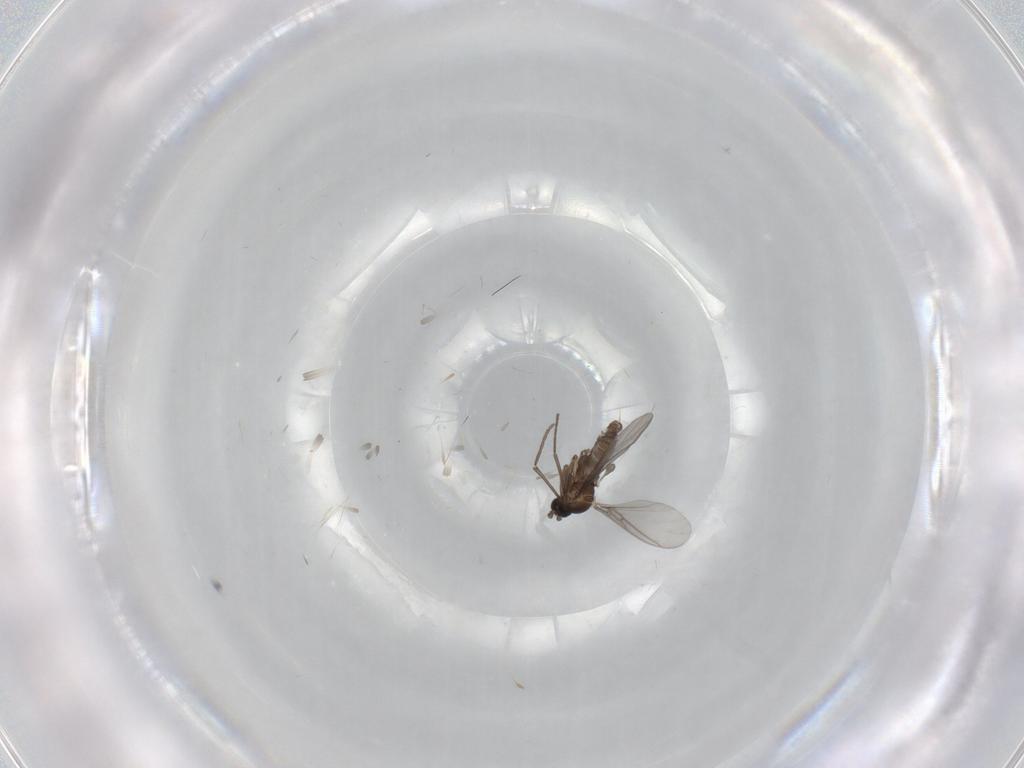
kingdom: Animalia
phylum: Arthropoda
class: Insecta
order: Diptera
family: Sciaridae
